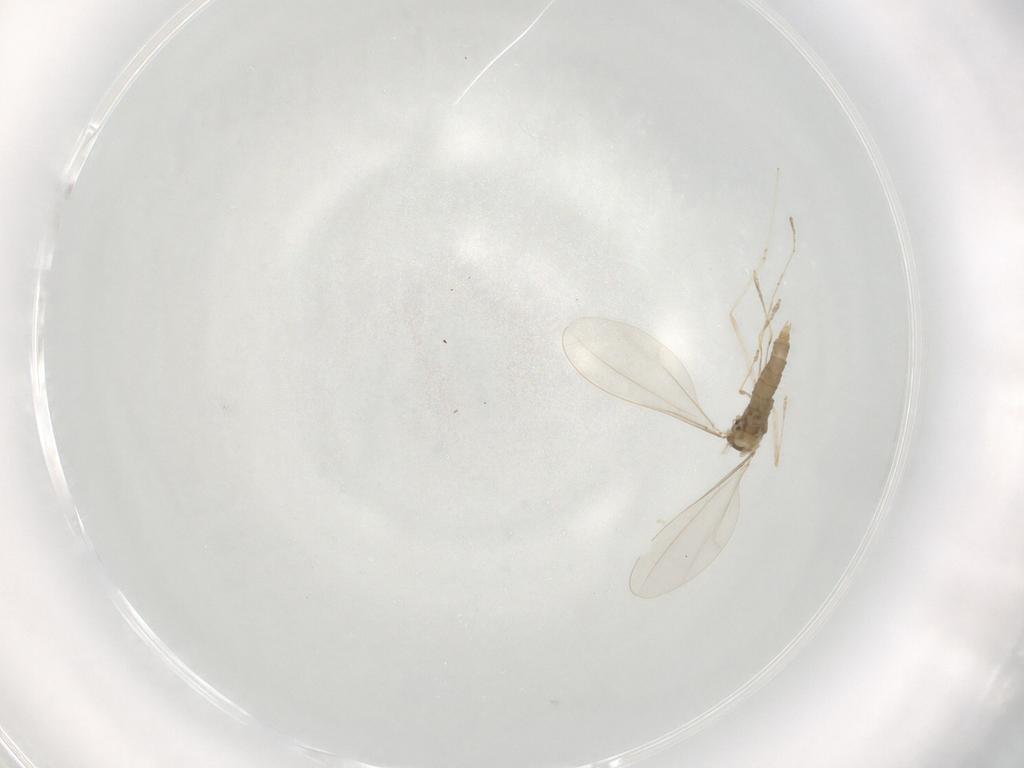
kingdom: Animalia
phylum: Arthropoda
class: Insecta
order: Diptera
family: Cecidomyiidae
